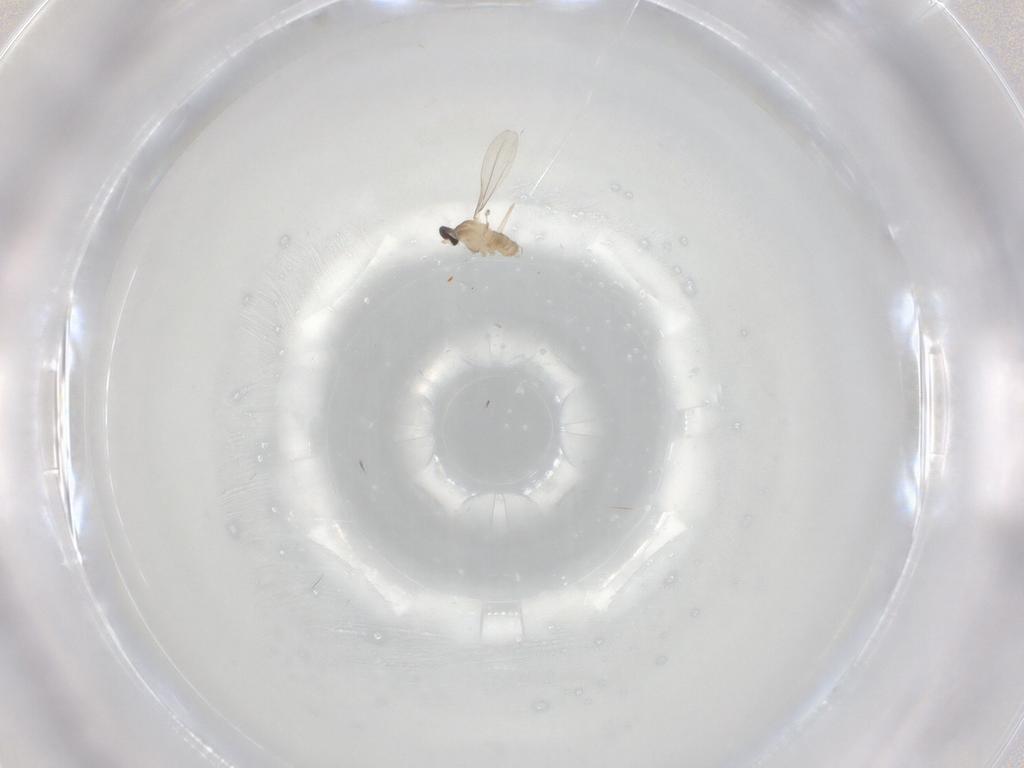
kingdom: Animalia
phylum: Arthropoda
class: Insecta
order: Diptera
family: Cecidomyiidae
